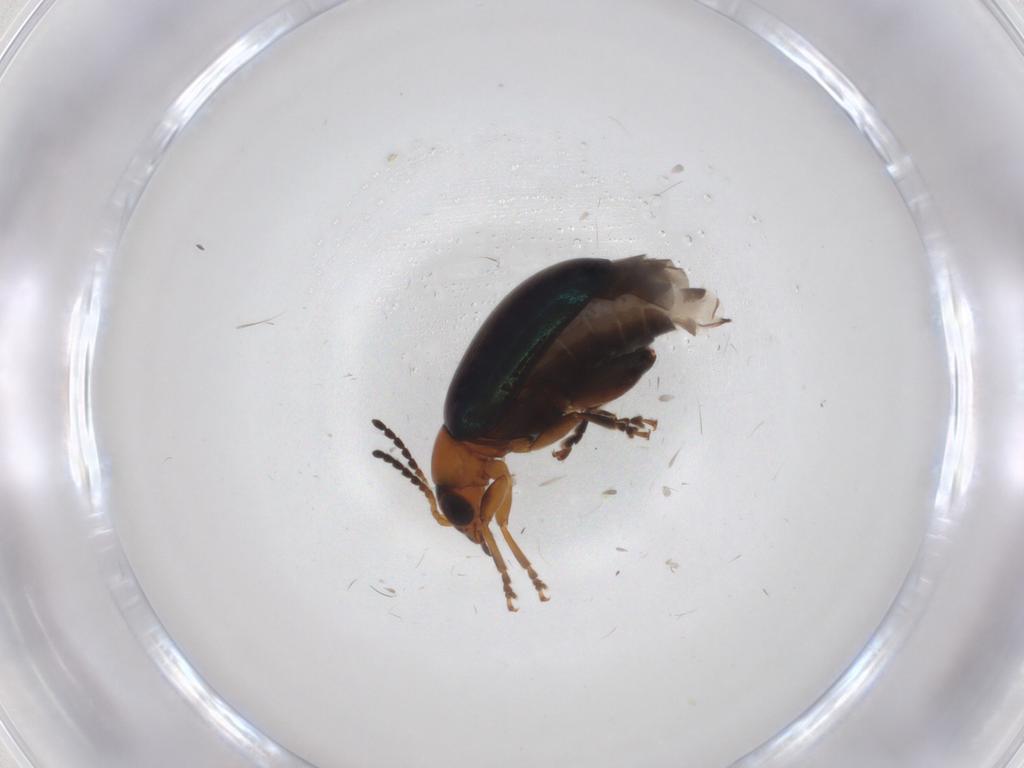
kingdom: Animalia
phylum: Arthropoda
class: Insecta
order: Coleoptera
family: Chrysomelidae
